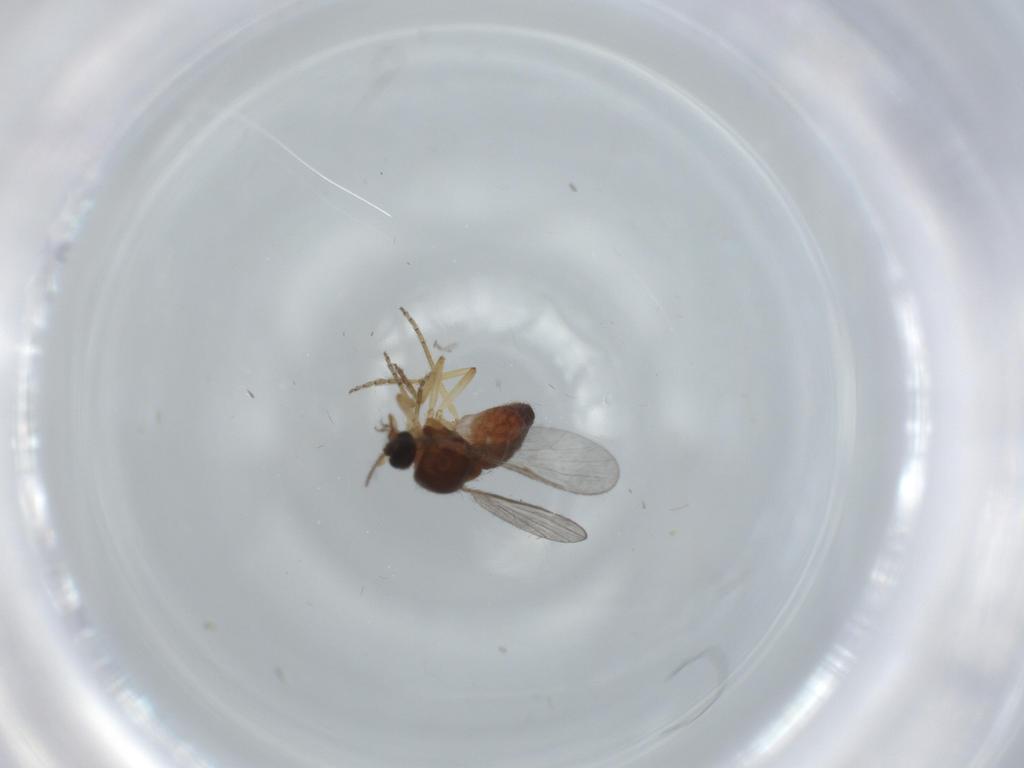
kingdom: Animalia
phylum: Arthropoda
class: Insecta
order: Diptera
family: Ceratopogonidae
